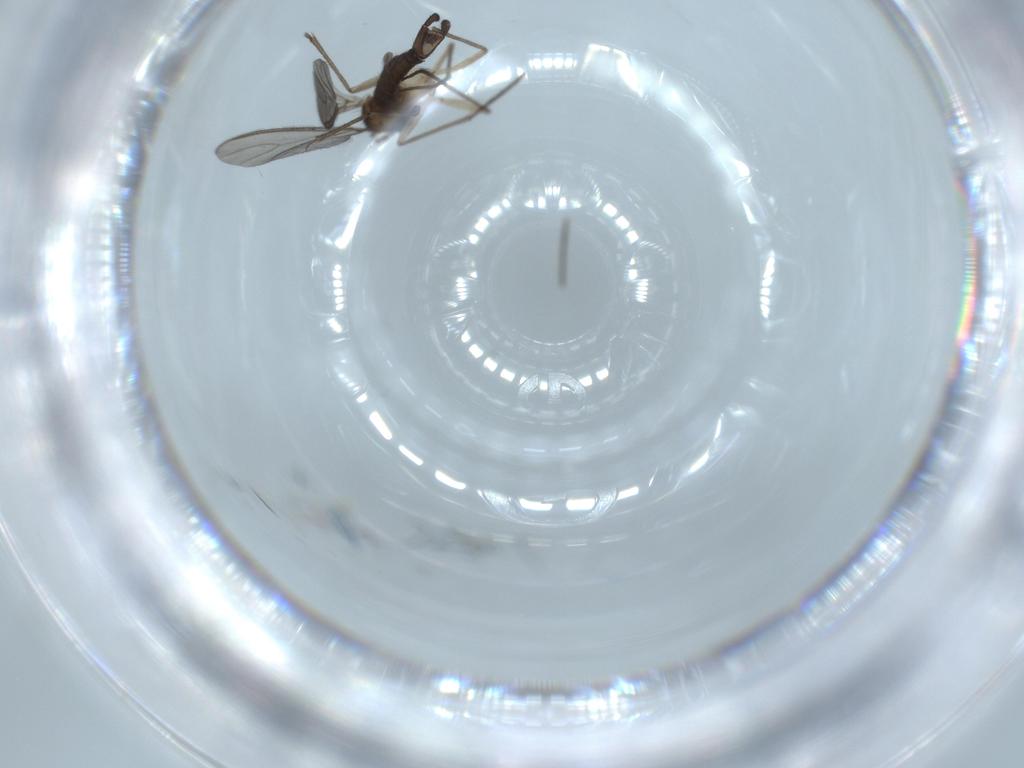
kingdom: Animalia
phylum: Arthropoda
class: Insecta
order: Diptera
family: Sciaridae
